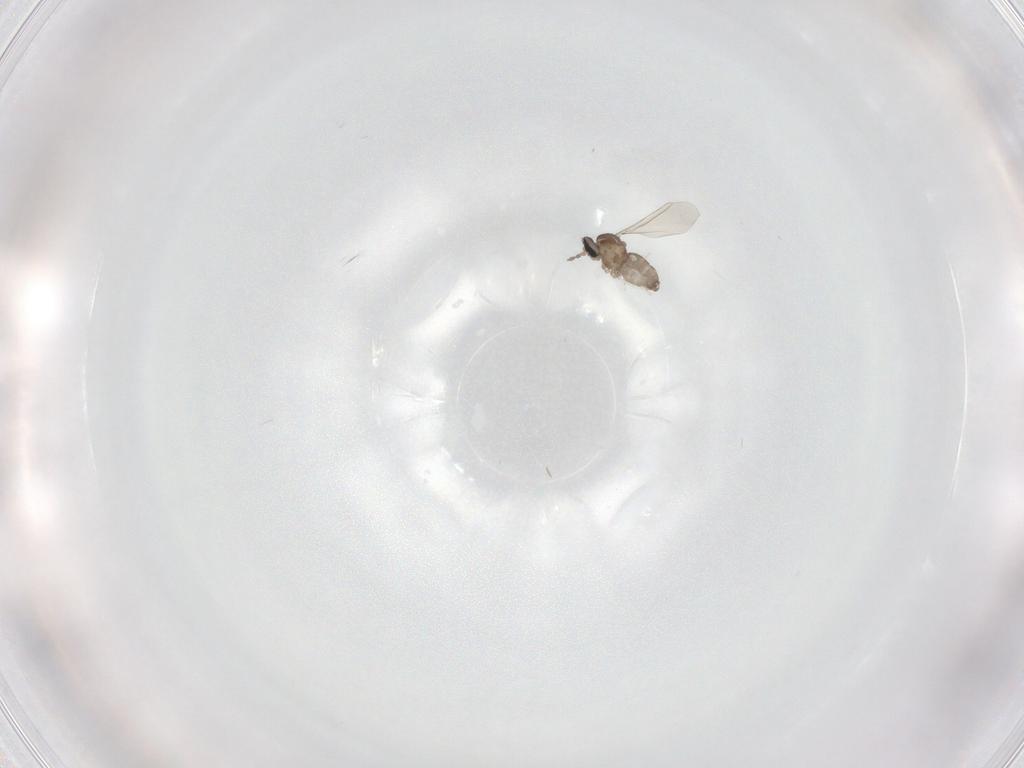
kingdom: Animalia
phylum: Arthropoda
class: Insecta
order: Diptera
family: Cecidomyiidae
